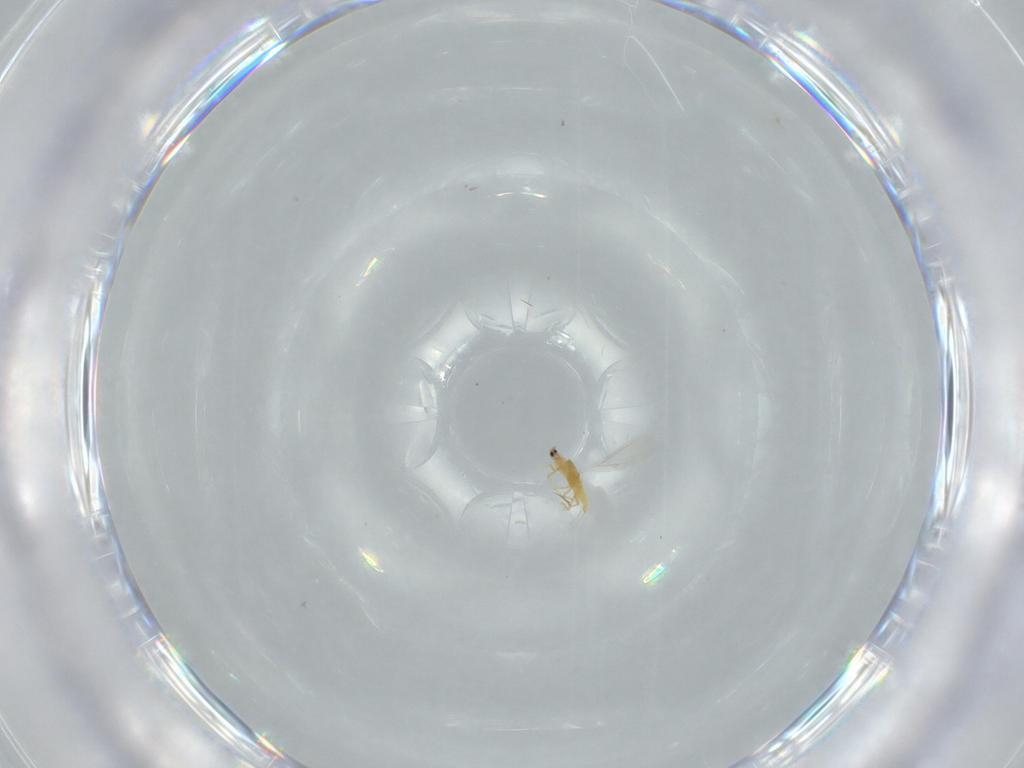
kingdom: Animalia
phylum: Arthropoda
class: Insecta
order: Diptera
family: Sciaridae
